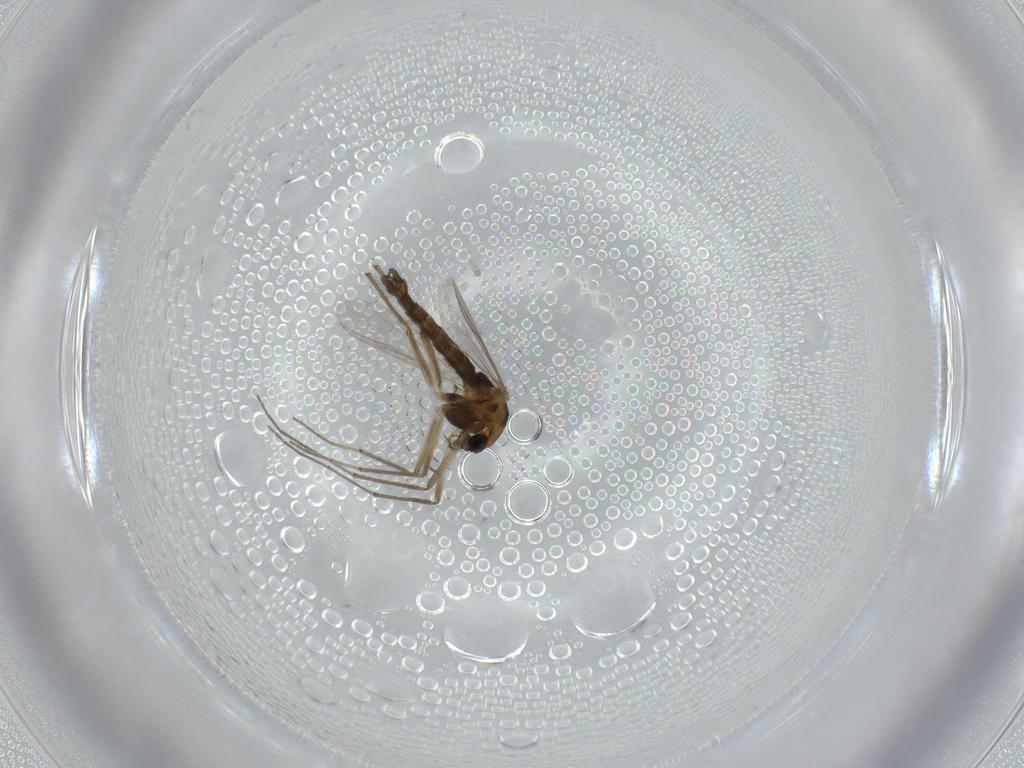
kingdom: Animalia
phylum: Arthropoda
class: Insecta
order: Diptera
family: Chironomidae
